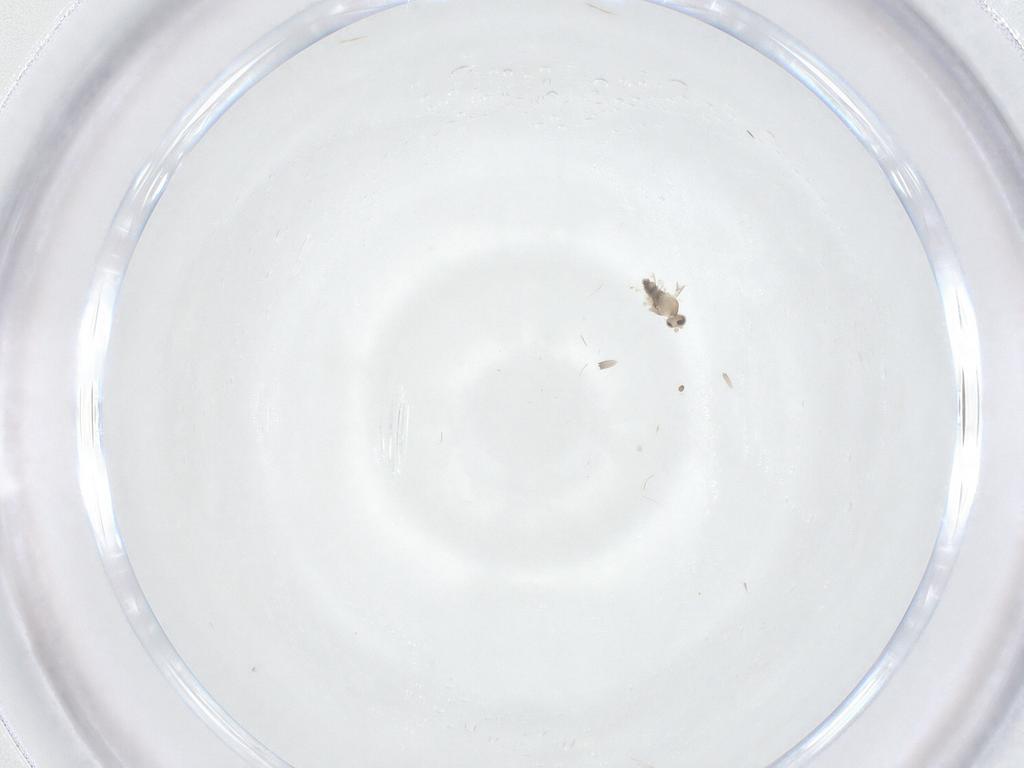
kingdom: Animalia
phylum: Arthropoda
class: Insecta
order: Diptera
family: Cecidomyiidae
